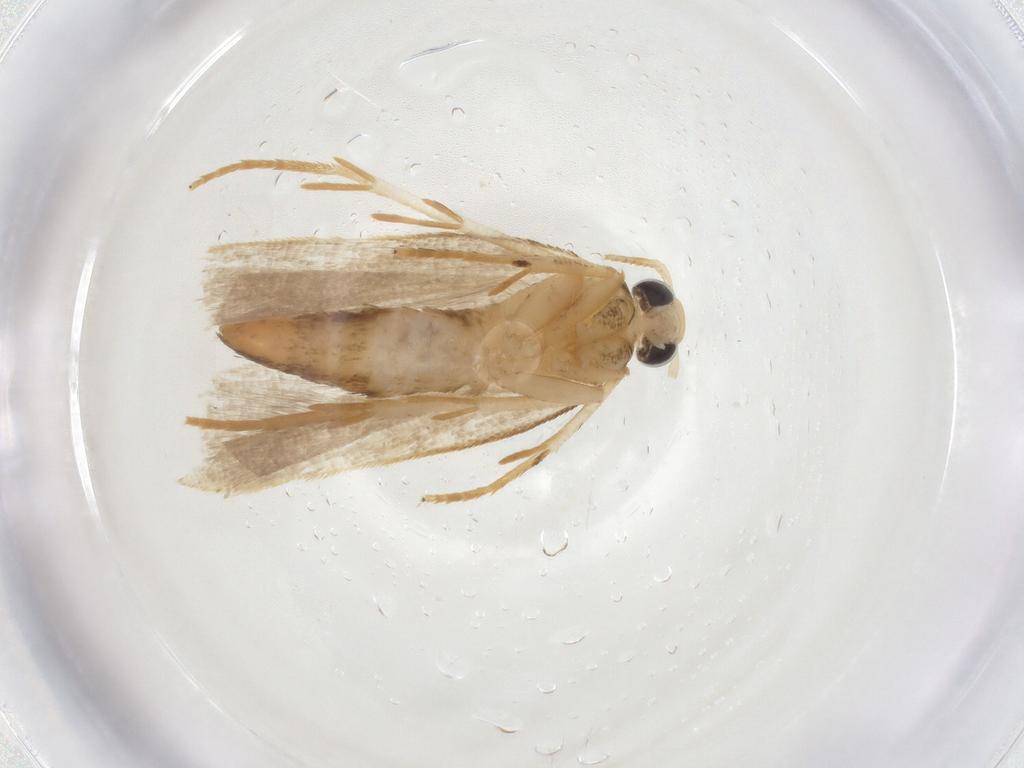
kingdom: Animalia
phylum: Arthropoda
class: Insecta
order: Lepidoptera
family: Gelechiidae
